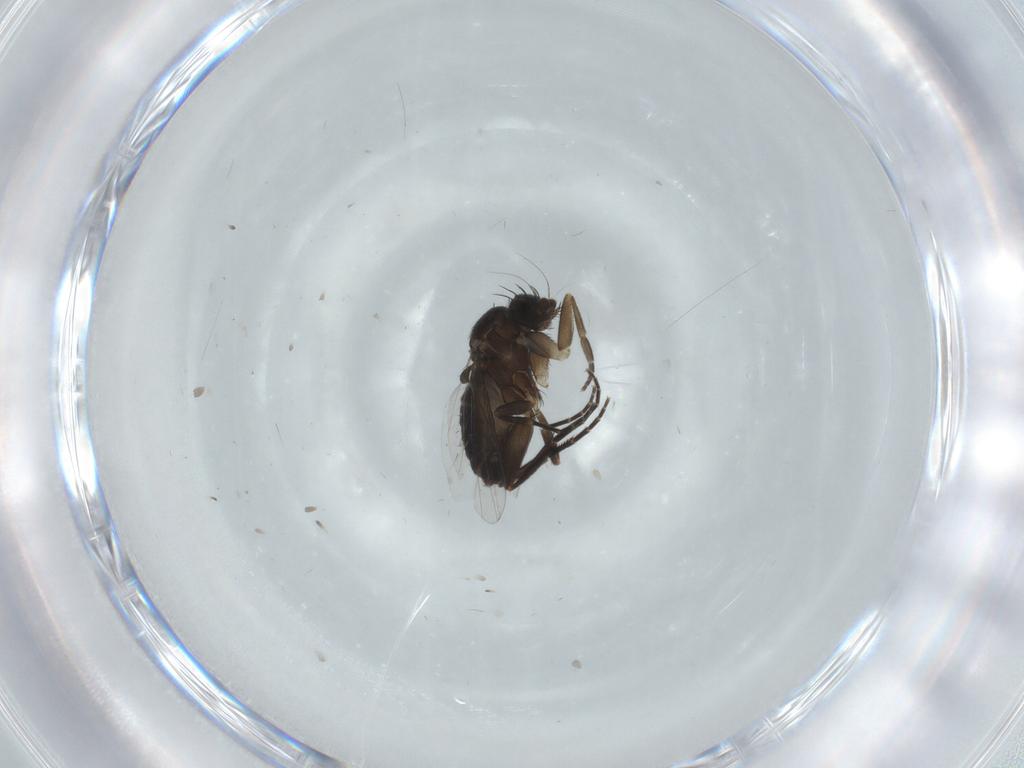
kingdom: Animalia
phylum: Arthropoda
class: Insecta
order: Diptera
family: Phoridae
